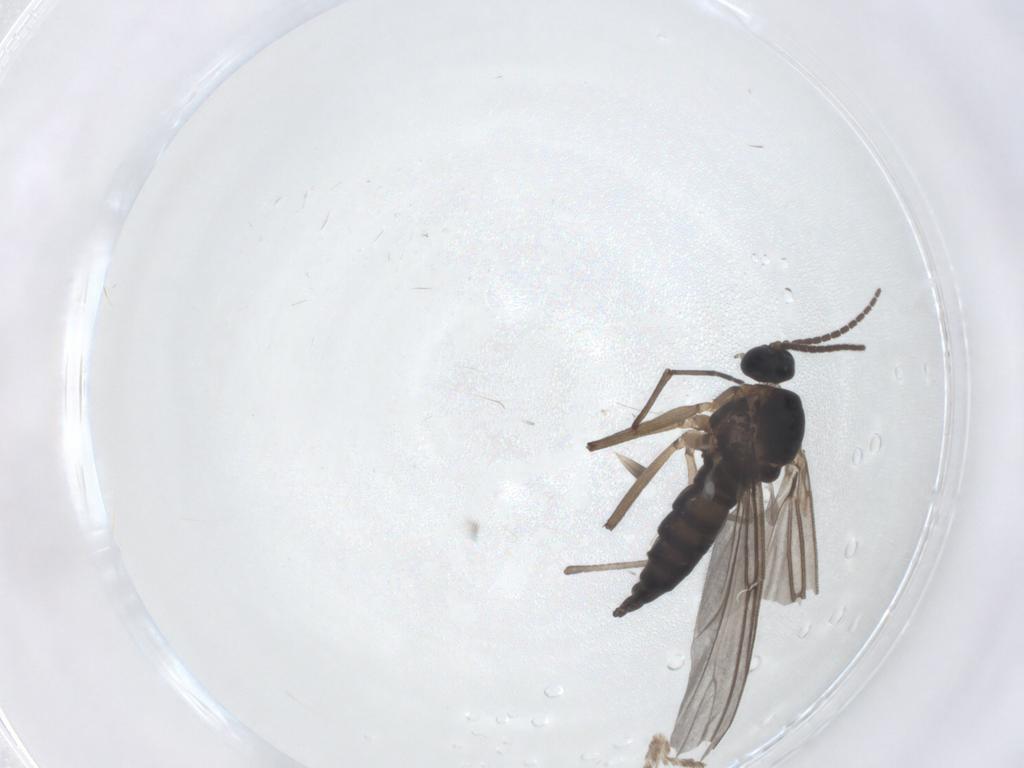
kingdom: Animalia
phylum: Arthropoda
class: Insecta
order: Diptera
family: Sciaridae
